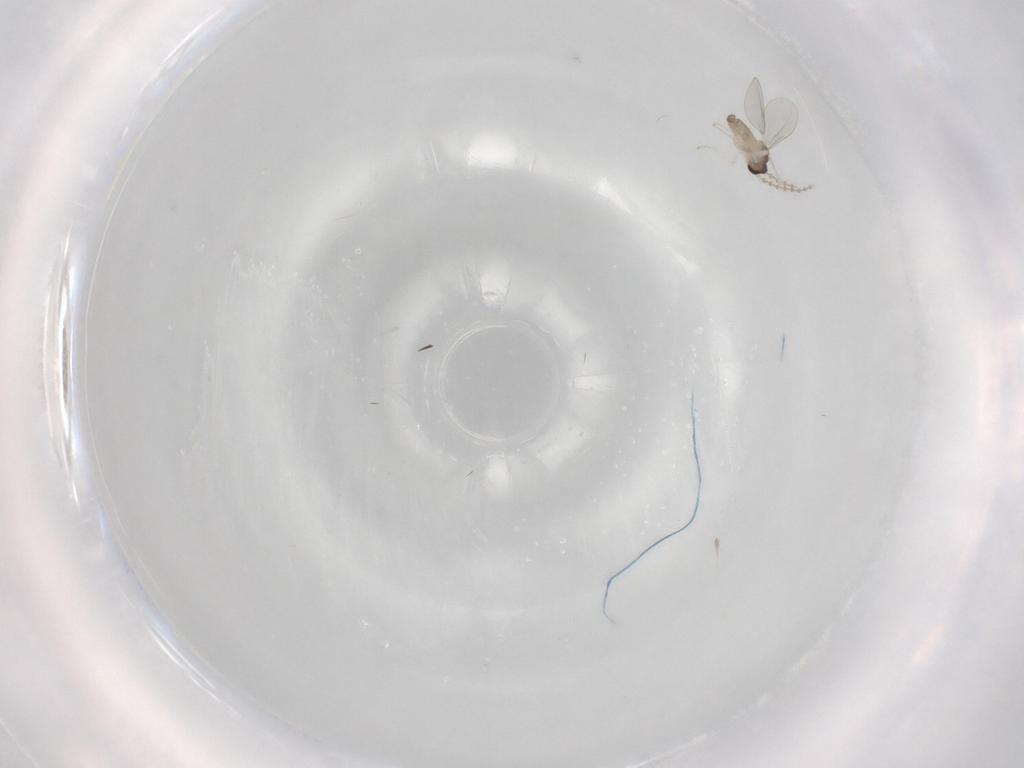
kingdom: Animalia
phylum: Arthropoda
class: Insecta
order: Diptera
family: Cecidomyiidae
